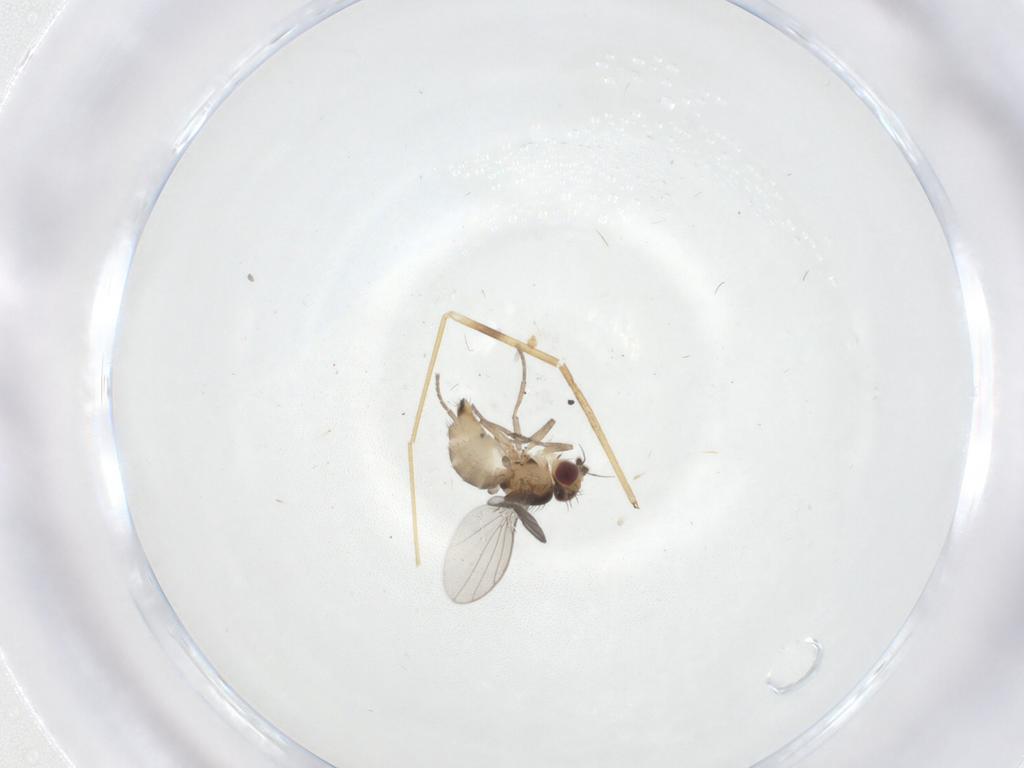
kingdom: Animalia
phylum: Arthropoda
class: Insecta
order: Diptera
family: Agromyzidae
